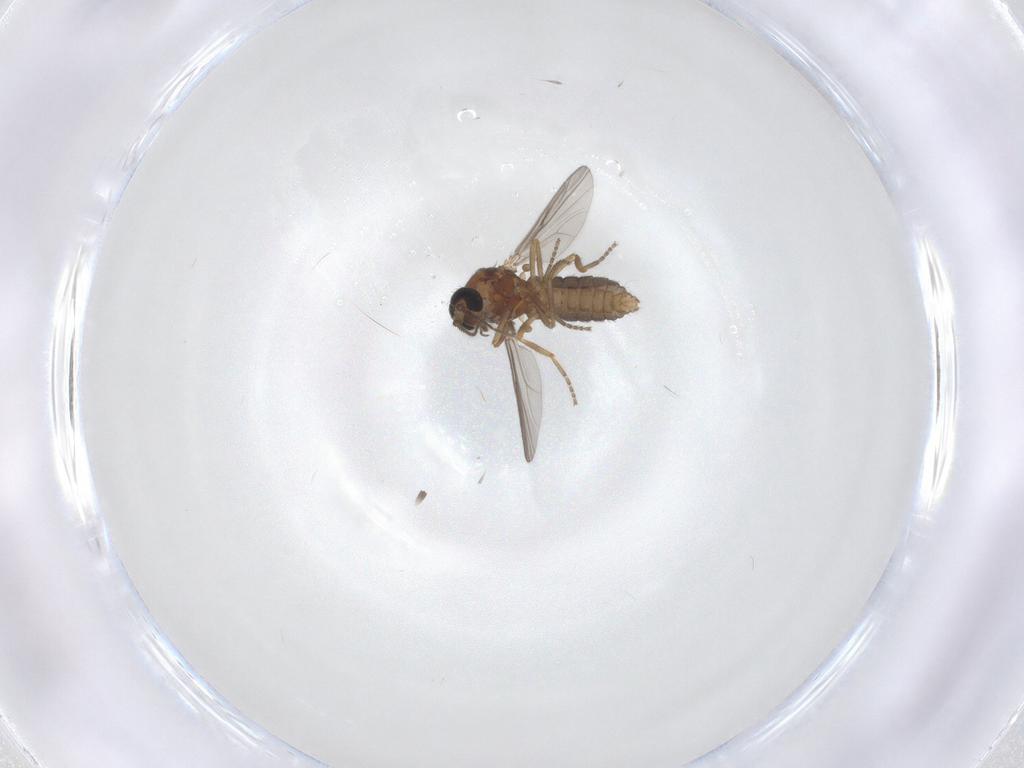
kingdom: Animalia
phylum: Arthropoda
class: Insecta
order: Diptera
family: Ceratopogonidae
